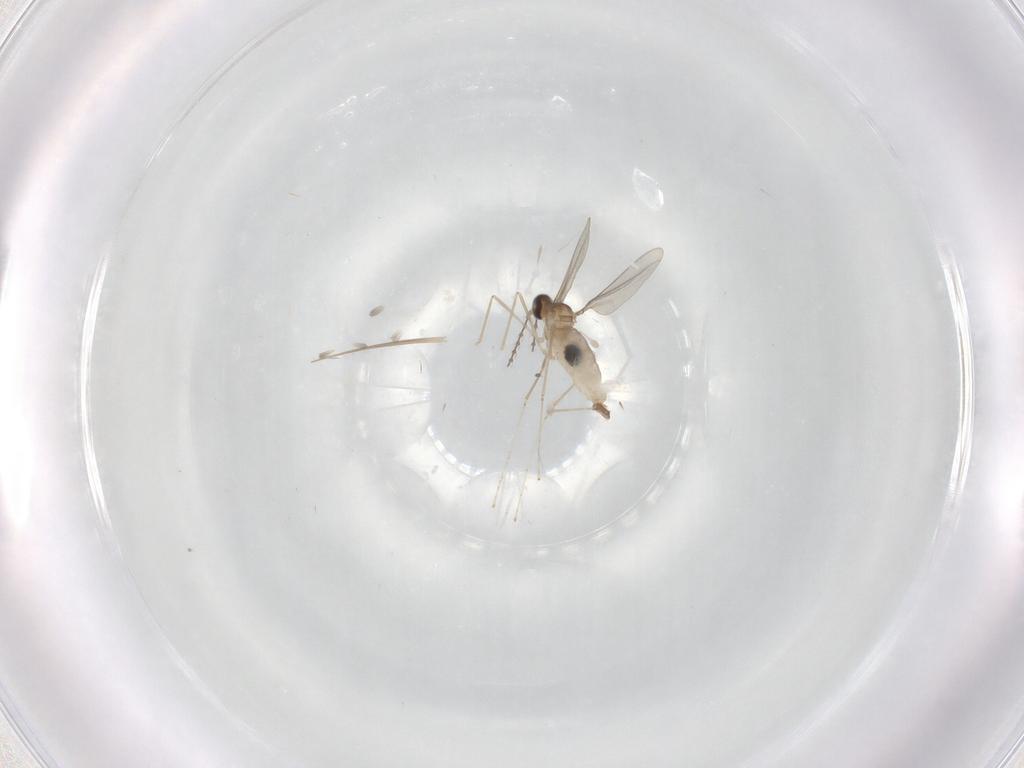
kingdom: Animalia
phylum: Arthropoda
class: Insecta
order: Diptera
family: Phoridae
